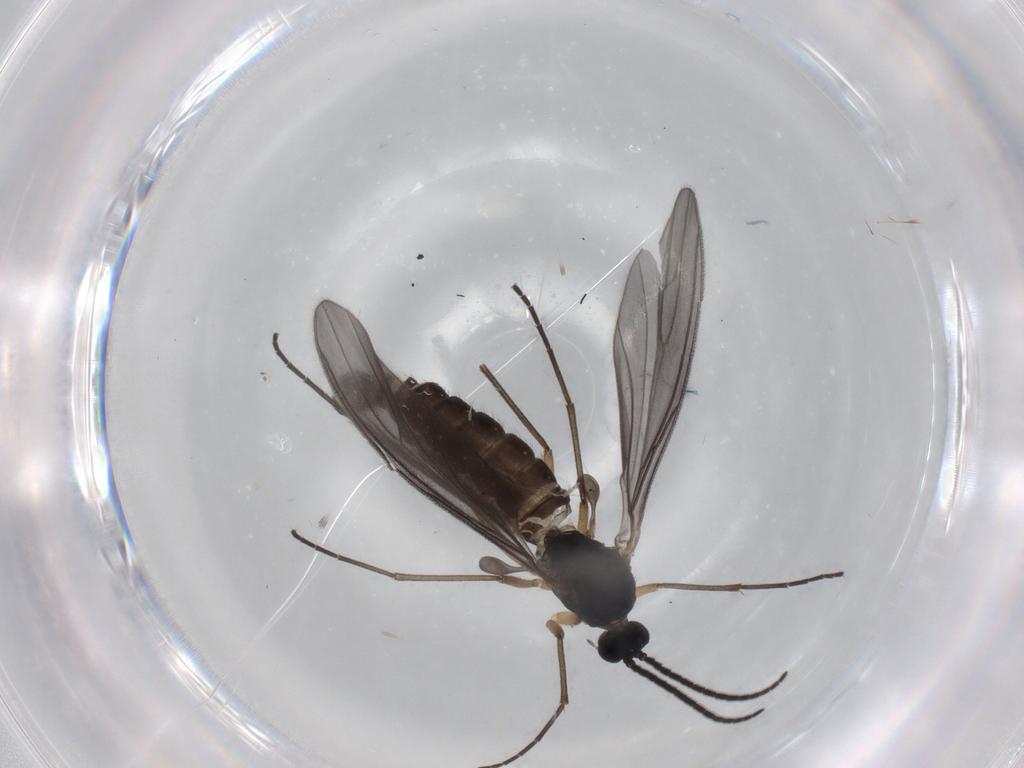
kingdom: Animalia
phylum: Arthropoda
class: Insecta
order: Diptera
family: Sciaridae
